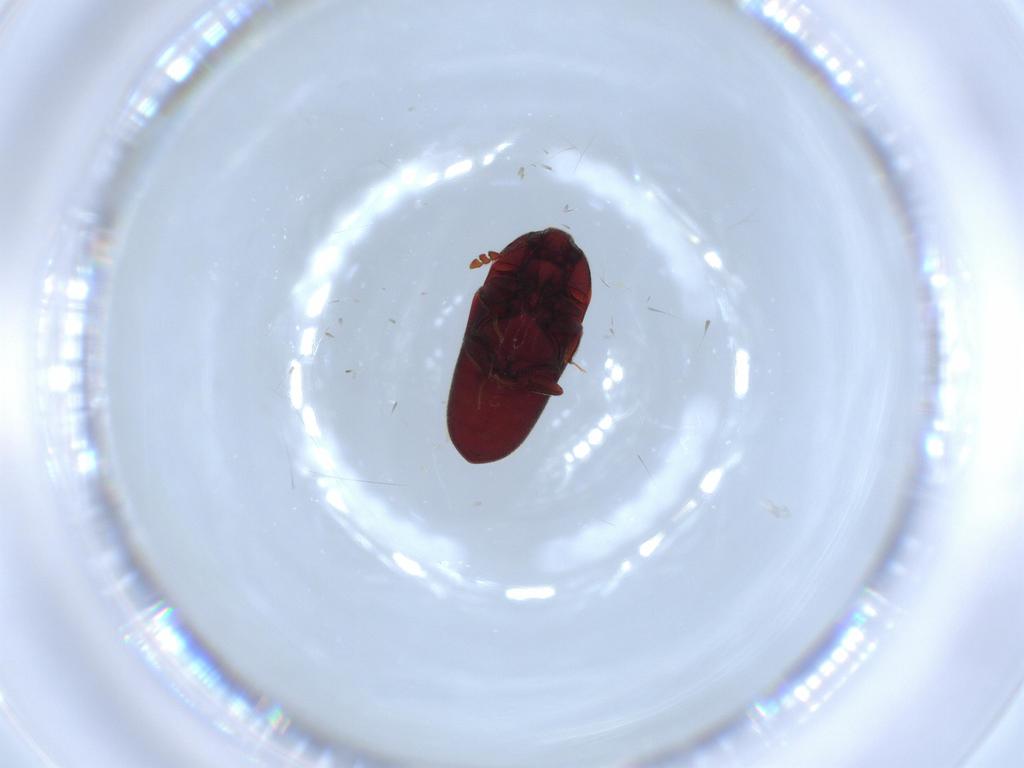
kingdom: Animalia
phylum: Arthropoda
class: Insecta
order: Coleoptera
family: Throscidae
